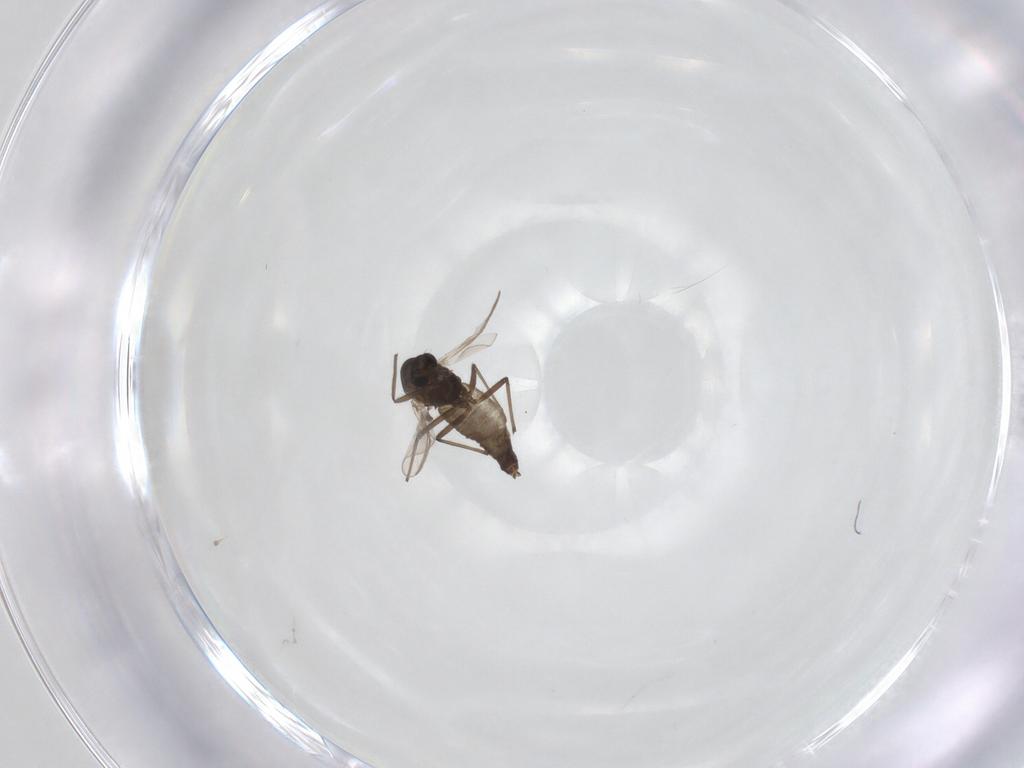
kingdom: Animalia
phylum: Arthropoda
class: Insecta
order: Diptera
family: Chironomidae
